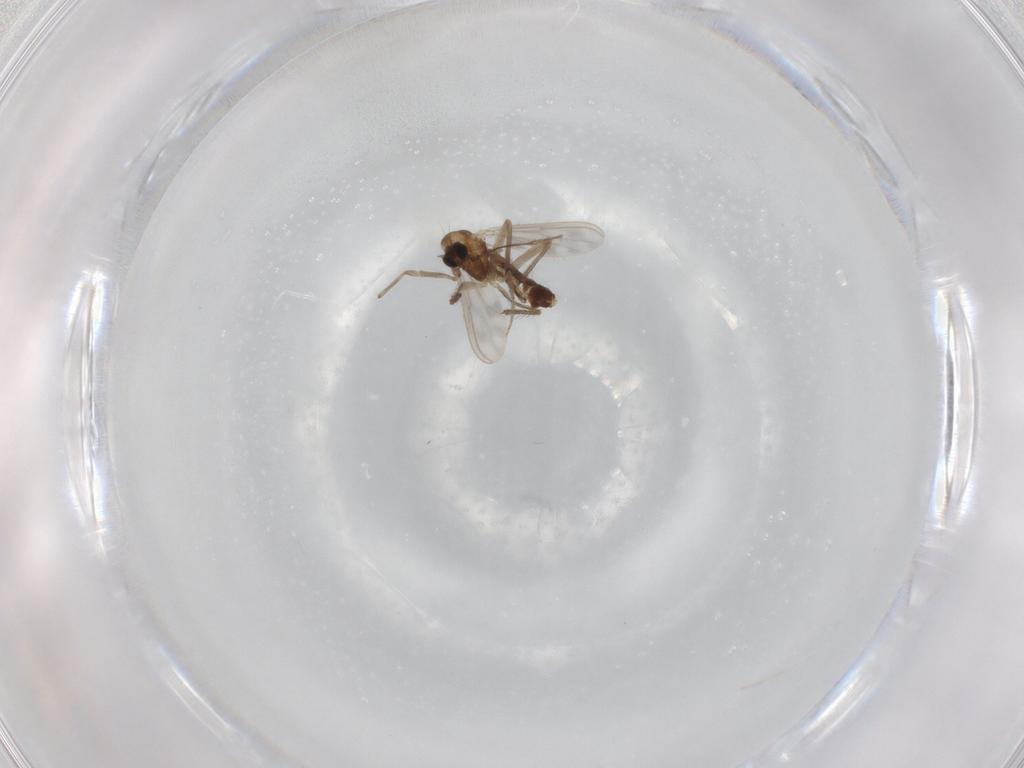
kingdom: Animalia
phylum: Arthropoda
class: Insecta
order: Diptera
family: Chironomidae
